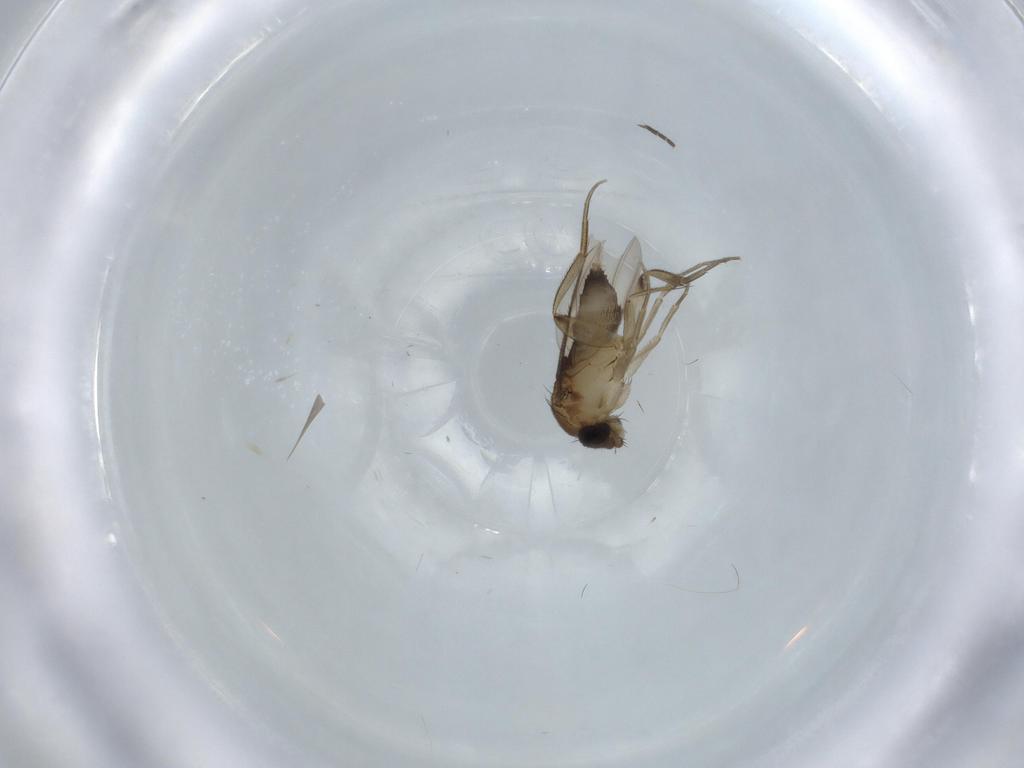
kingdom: Animalia
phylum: Arthropoda
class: Insecta
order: Diptera
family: Phoridae
